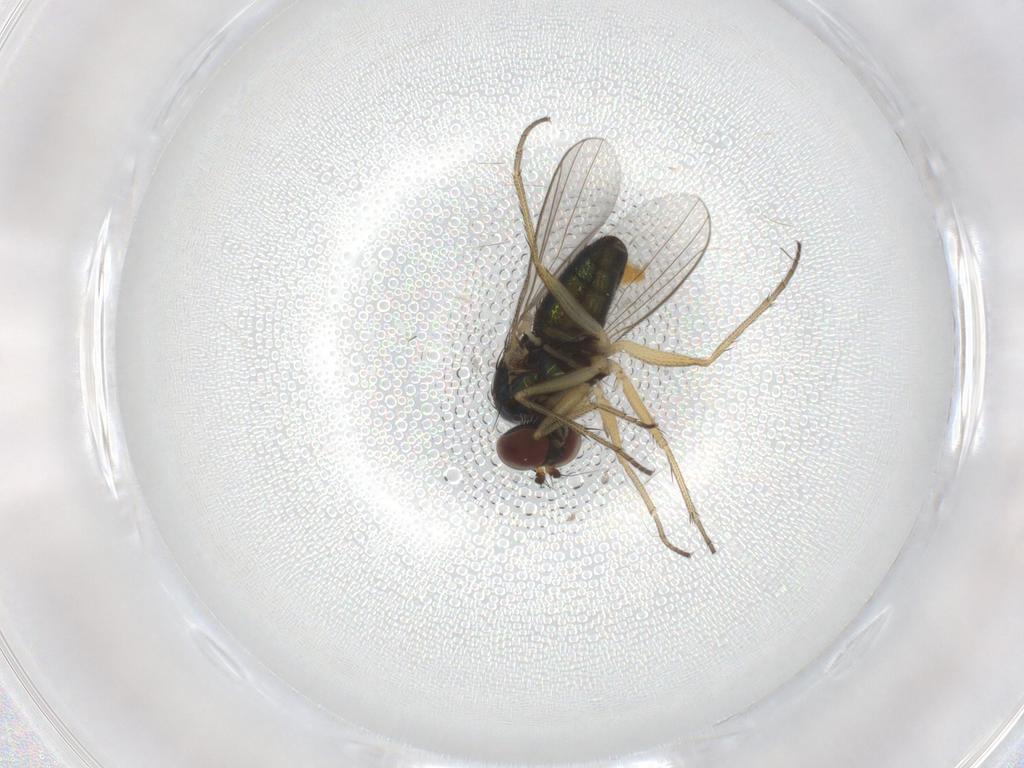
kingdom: Animalia
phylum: Arthropoda
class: Insecta
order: Diptera
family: Dolichopodidae
